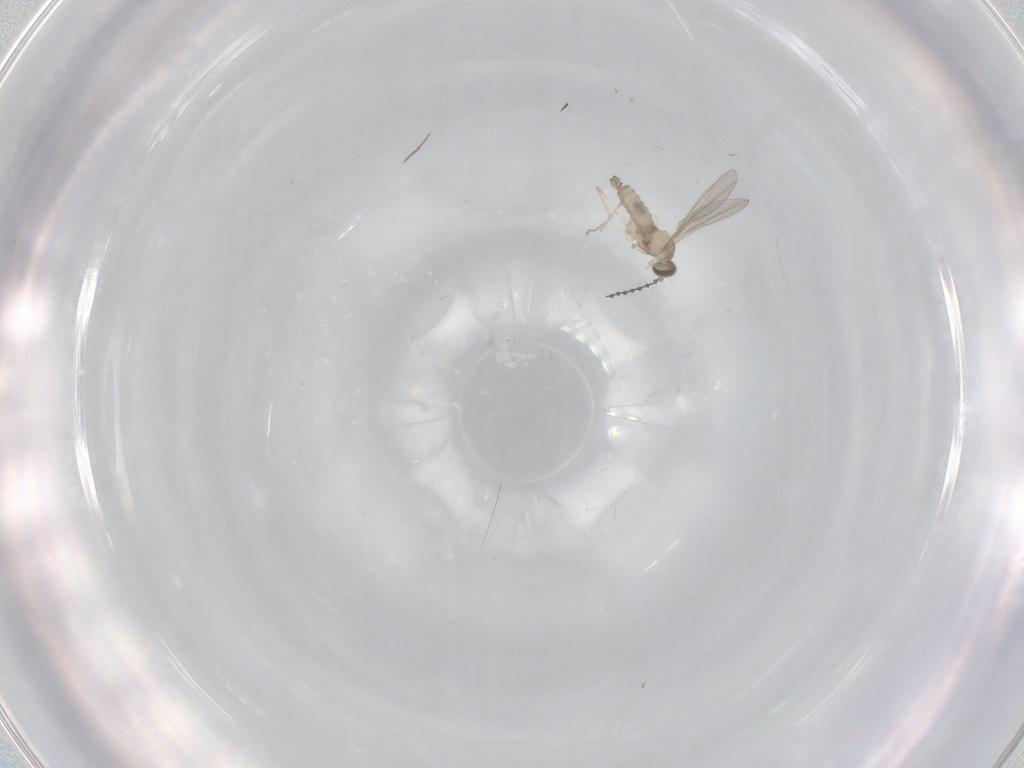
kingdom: Animalia
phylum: Arthropoda
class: Insecta
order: Diptera
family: Chironomidae
